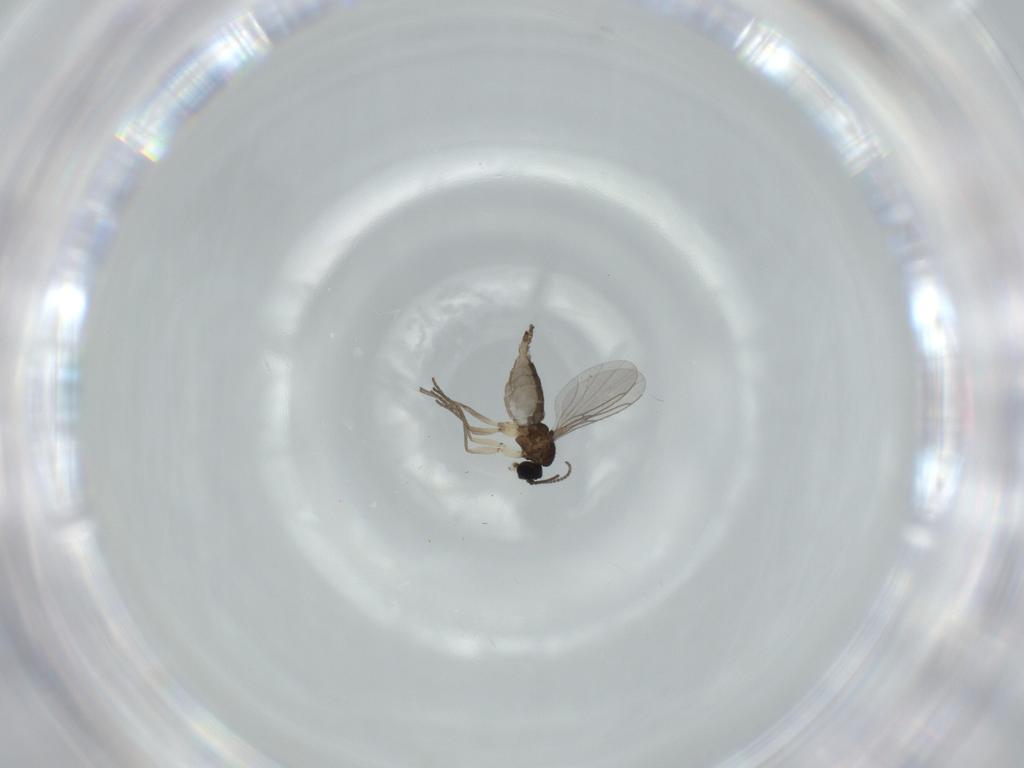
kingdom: Animalia
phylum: Arthropoda
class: Insecta
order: Diptera
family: Sciaridae
